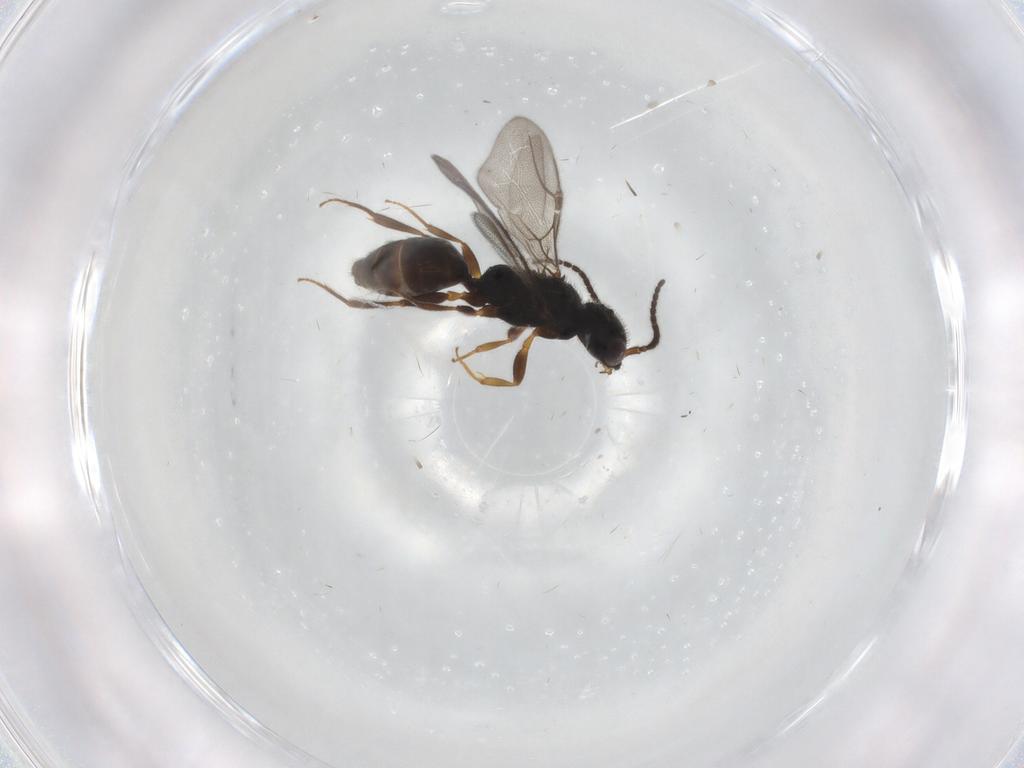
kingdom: Animalia
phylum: Arthropoda
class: Insecta
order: Hymenoptera
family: Bethylidae
